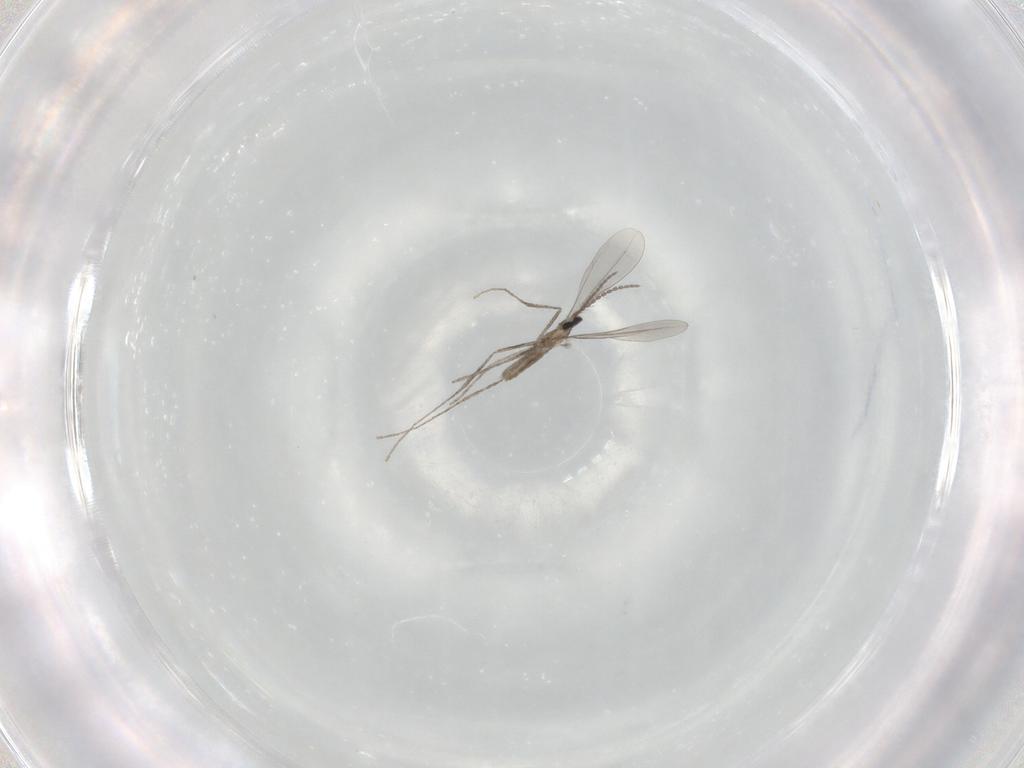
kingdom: Animalia
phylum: Arthropoda
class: Insecta
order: Diptera
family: Cecidomyiidae
